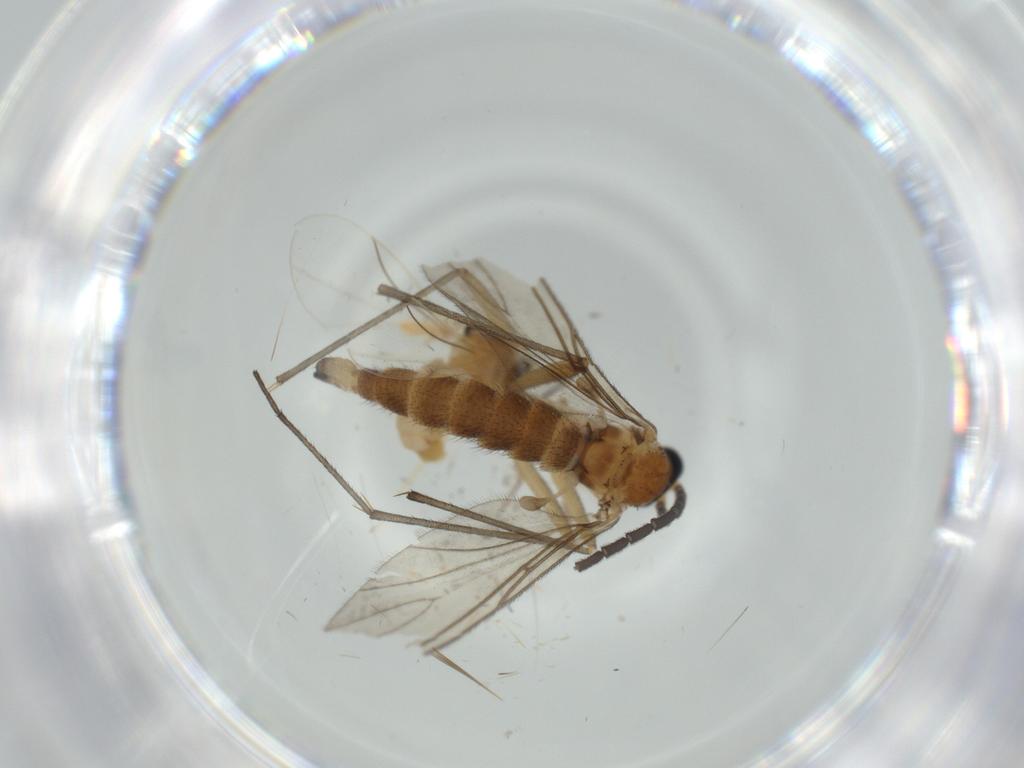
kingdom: Animalia
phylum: Arthropoda
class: Insecta
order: Diptera
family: Cecidomyiidae
